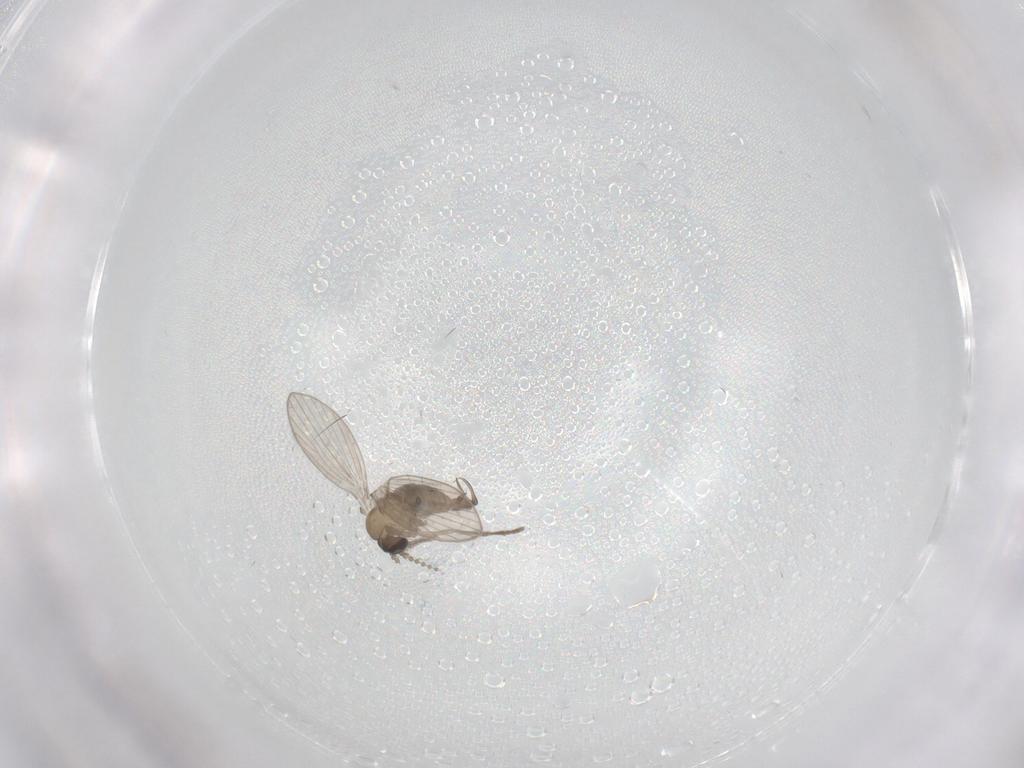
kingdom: Animalia
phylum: Arthropoda
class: Insecta
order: Diptera
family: Psychodidae
